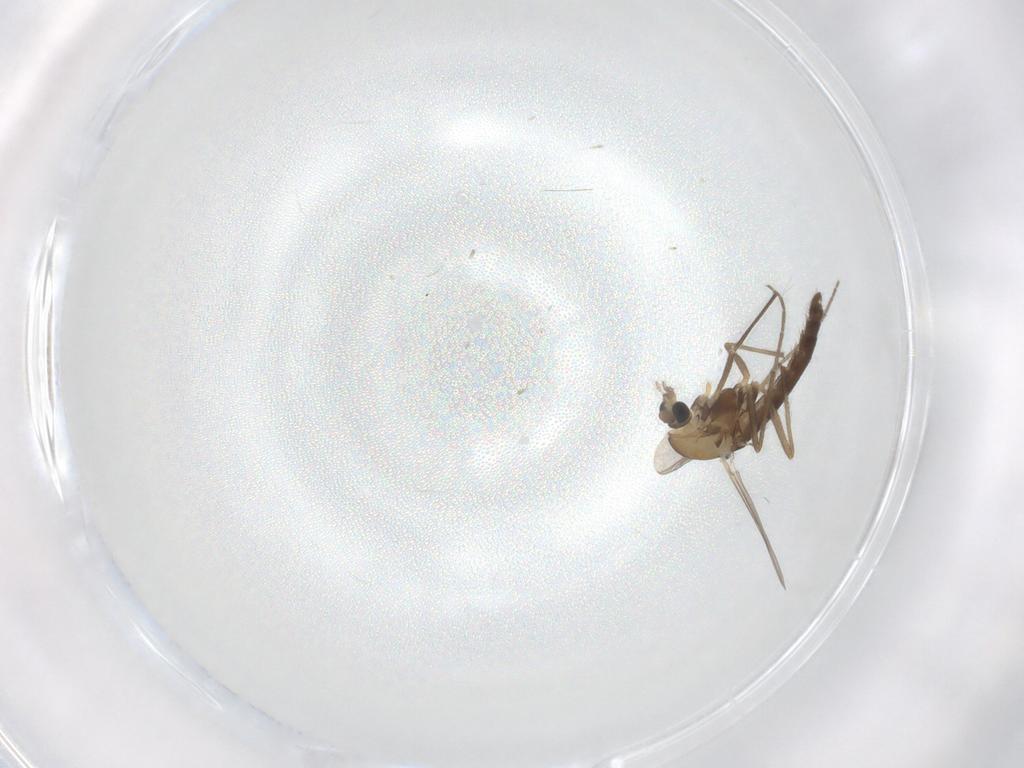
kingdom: Animalia
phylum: Arthropoda
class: Insecta
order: Diptera
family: Chironomidae
